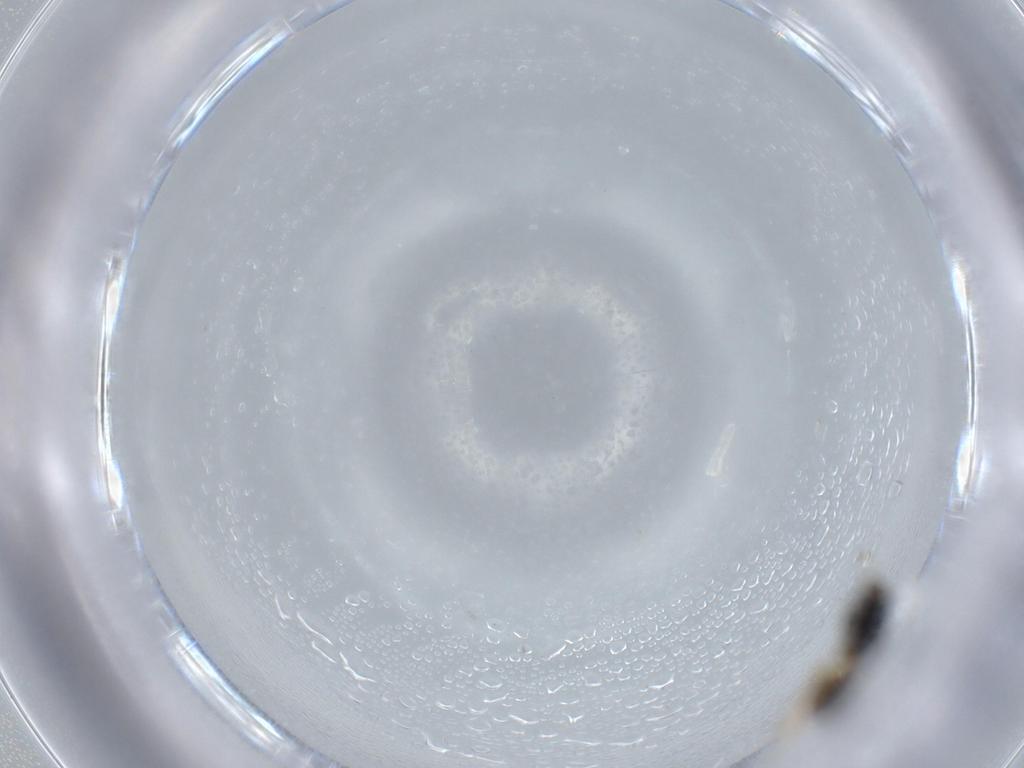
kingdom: Animalia
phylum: Arthropoda
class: Insecta
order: Hymenoptera
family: Scelionidae
